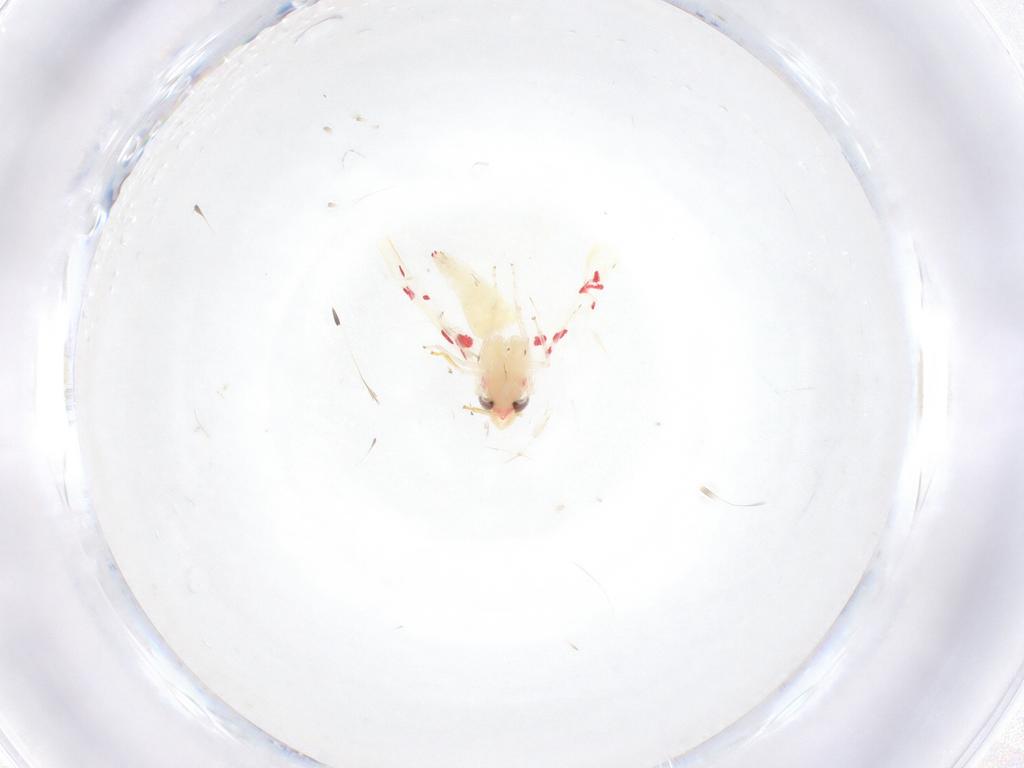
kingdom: Animalia
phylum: Arthropoda
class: Insecta
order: Hemiptera
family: Cicadellidae
